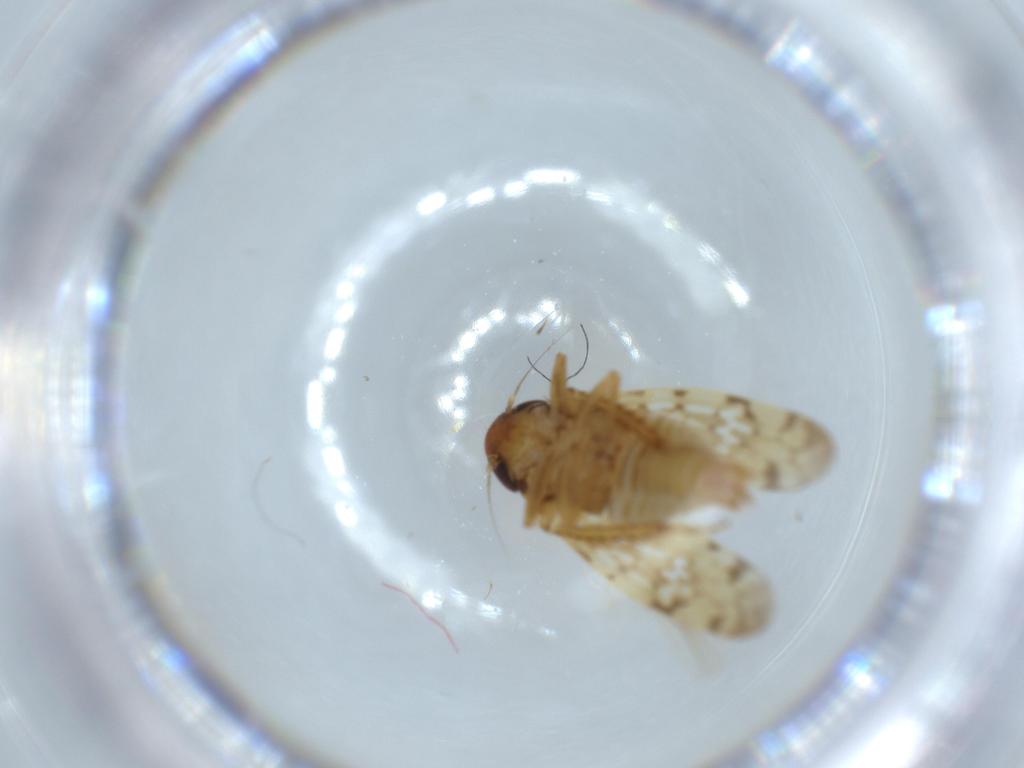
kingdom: Animalia
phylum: Arthropoda
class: Insecta
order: Hemiptera
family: Cicadellidae
